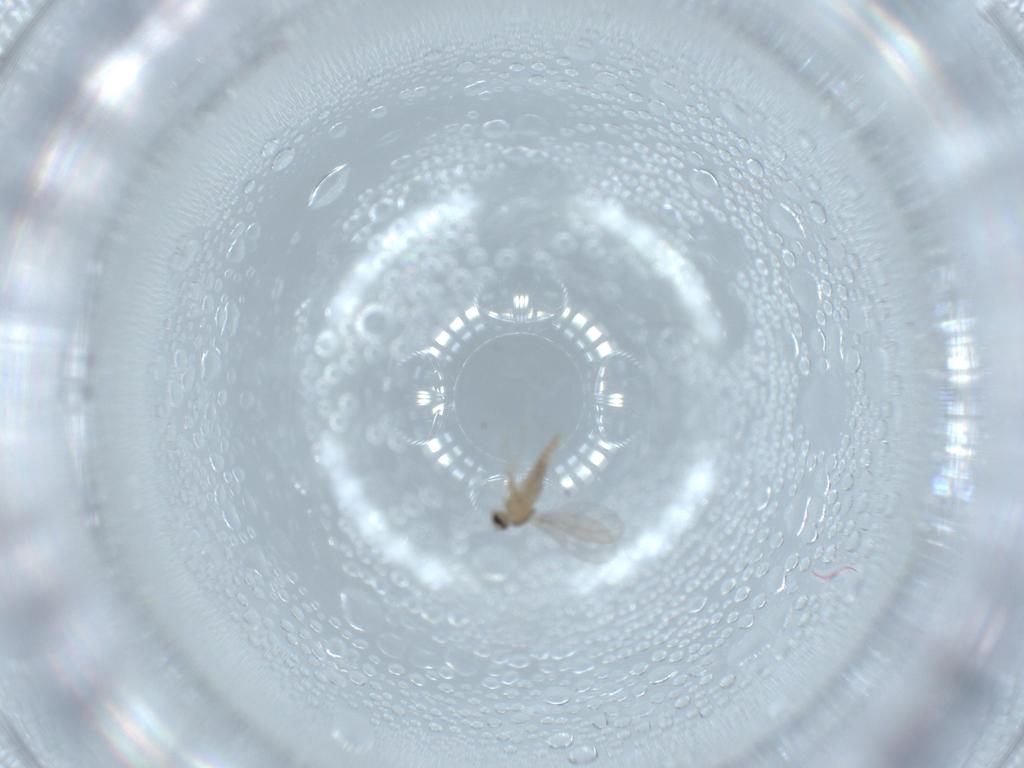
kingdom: Animalia
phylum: Arthropoda
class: Insecta
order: Diptera
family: Cecidomyiidae
